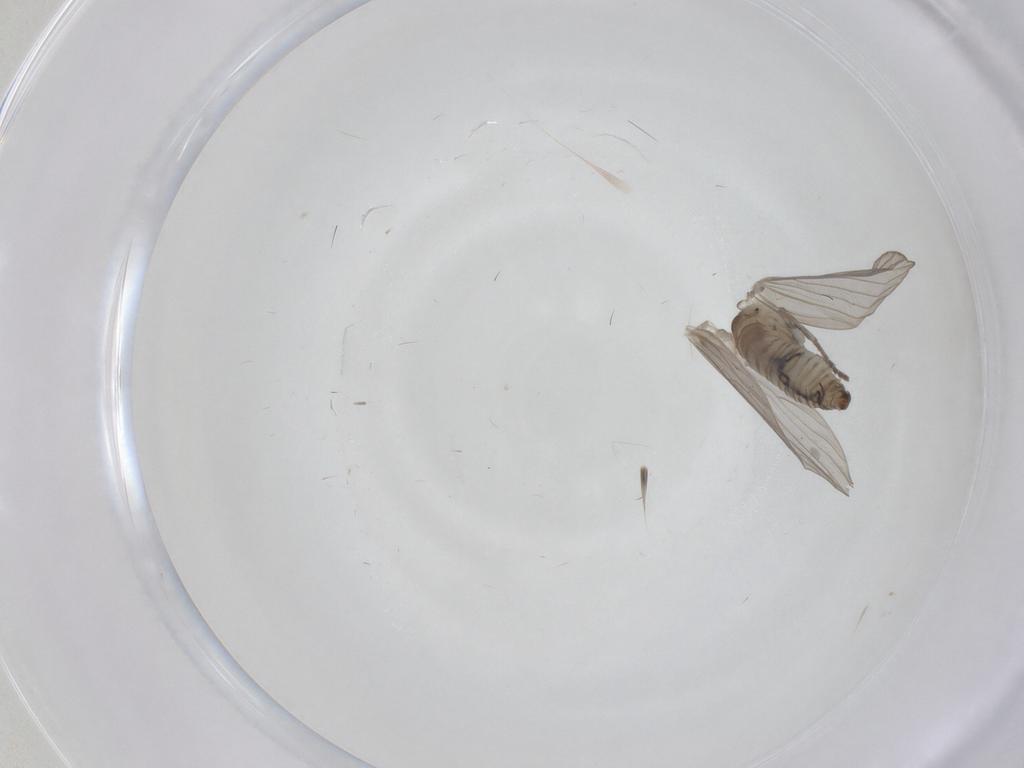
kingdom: Animalia
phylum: Arthropoda
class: Insecta
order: Diptera
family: Psychodidae
